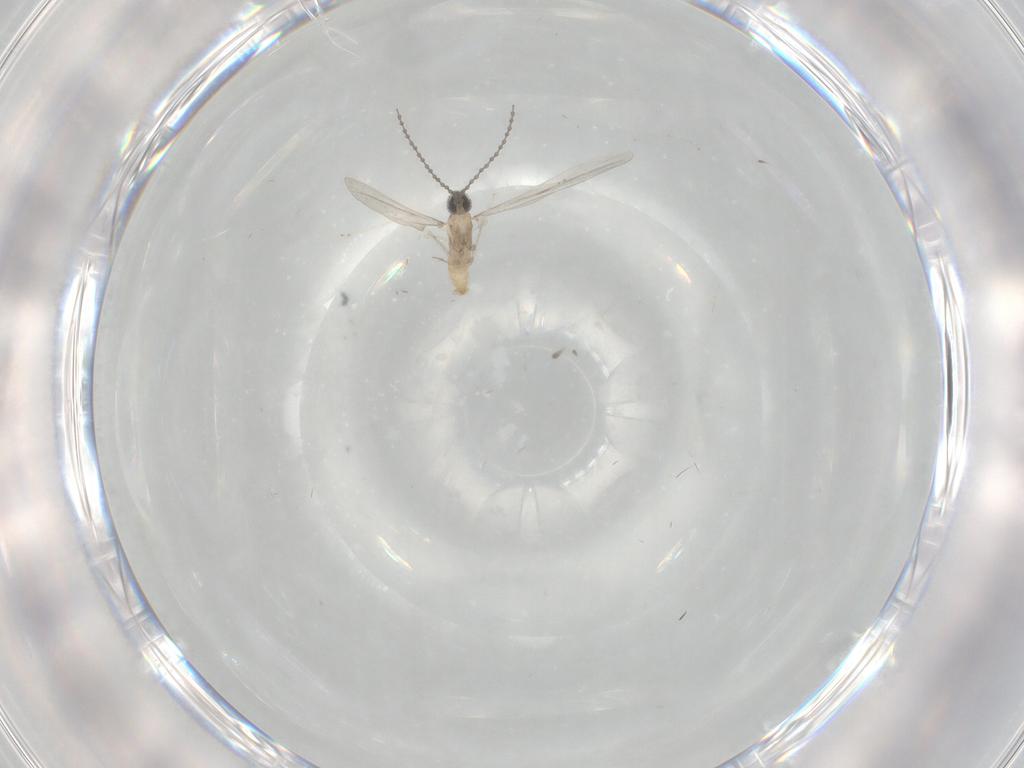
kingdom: Animalia
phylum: Arthropoda
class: Insecta
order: Diptera
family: Cecidomyiidae
